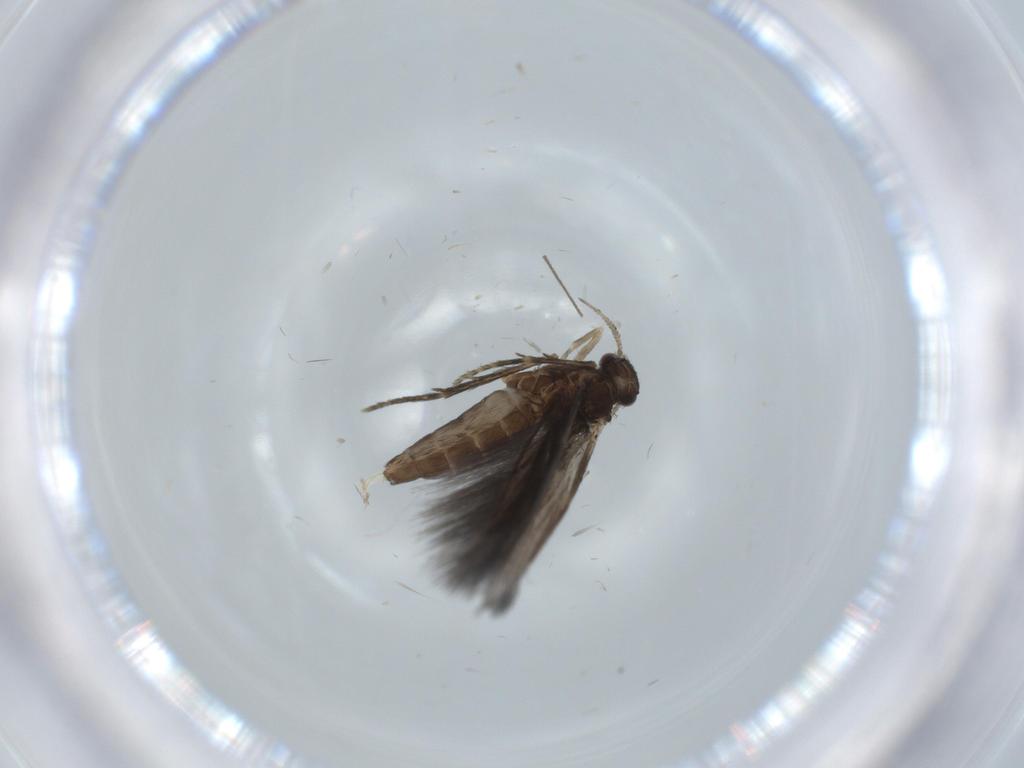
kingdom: Animalia
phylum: Arthropoda
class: Insecta
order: Trichoptera
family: Hydroptilidae
